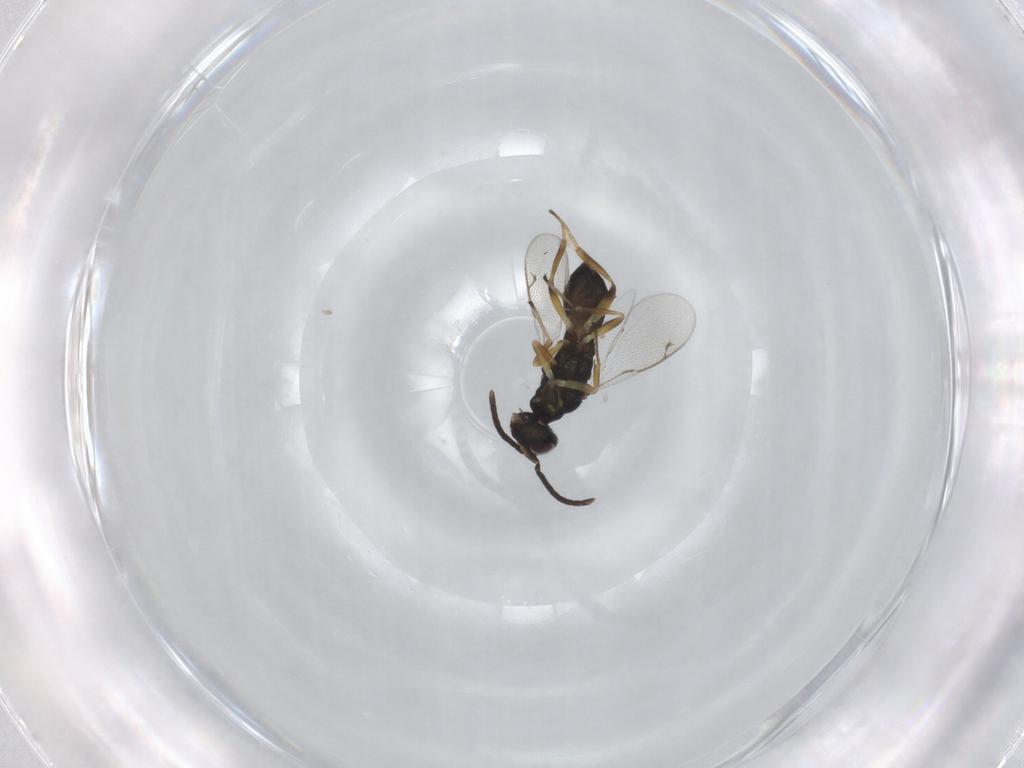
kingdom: Animalia
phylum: Arthropoda
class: Insecta
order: Hymenoptera
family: Eupelmidae
